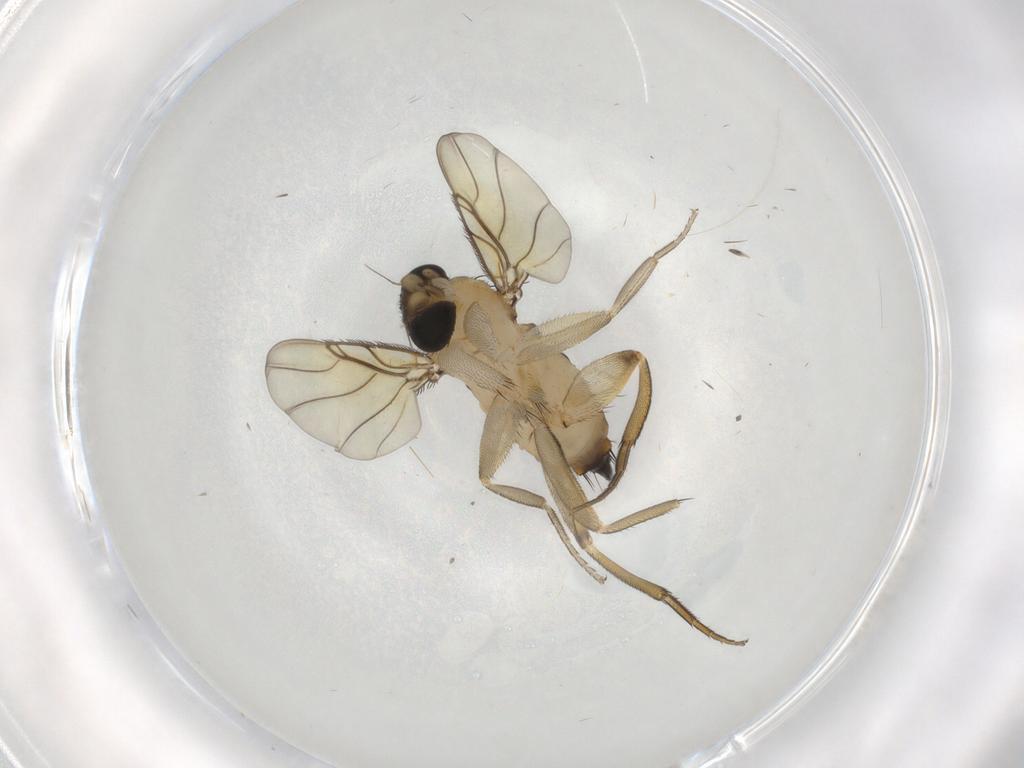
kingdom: Animalia
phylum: Arthropoda
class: Insecta
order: Diptera
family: Phoridae
